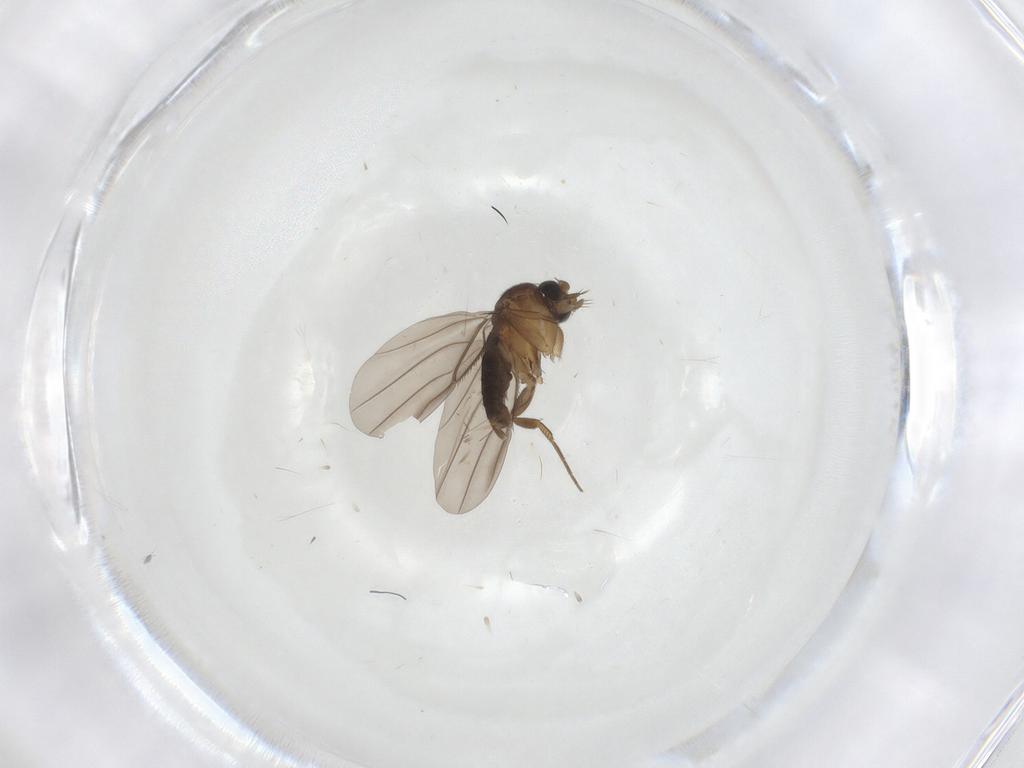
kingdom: Animalia
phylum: Arthropoda
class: Insecta
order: Diptera
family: Phoridae
